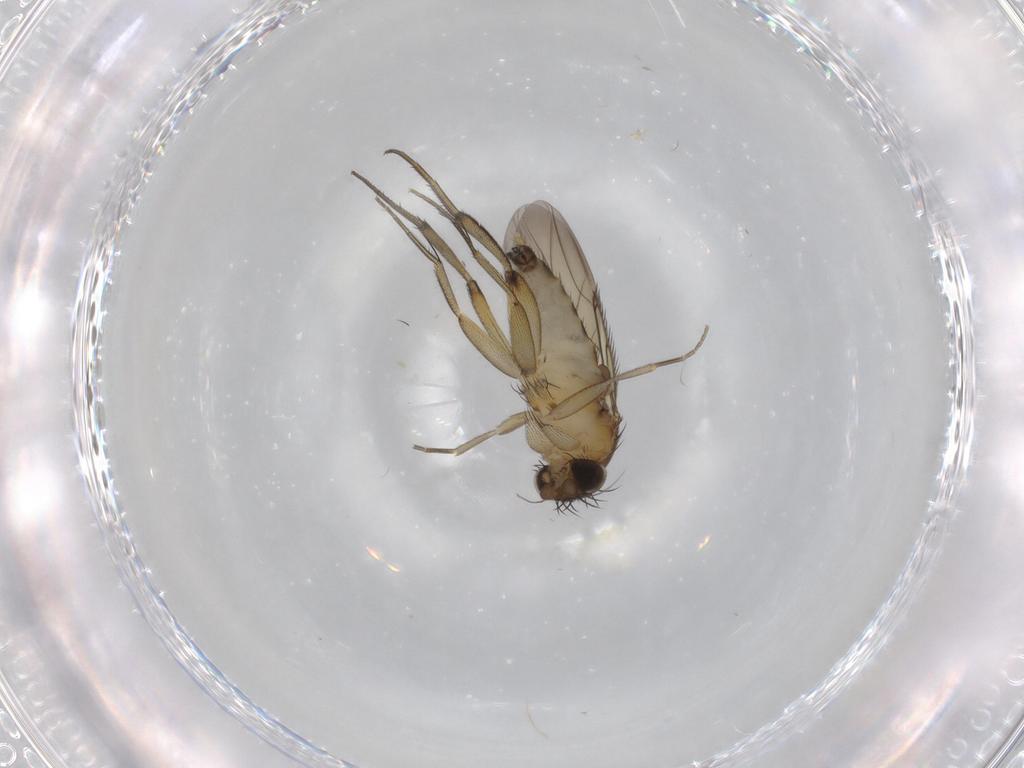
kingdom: Animalia
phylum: Arthropoda
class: Insecta
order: Diptera
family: Phoridae
